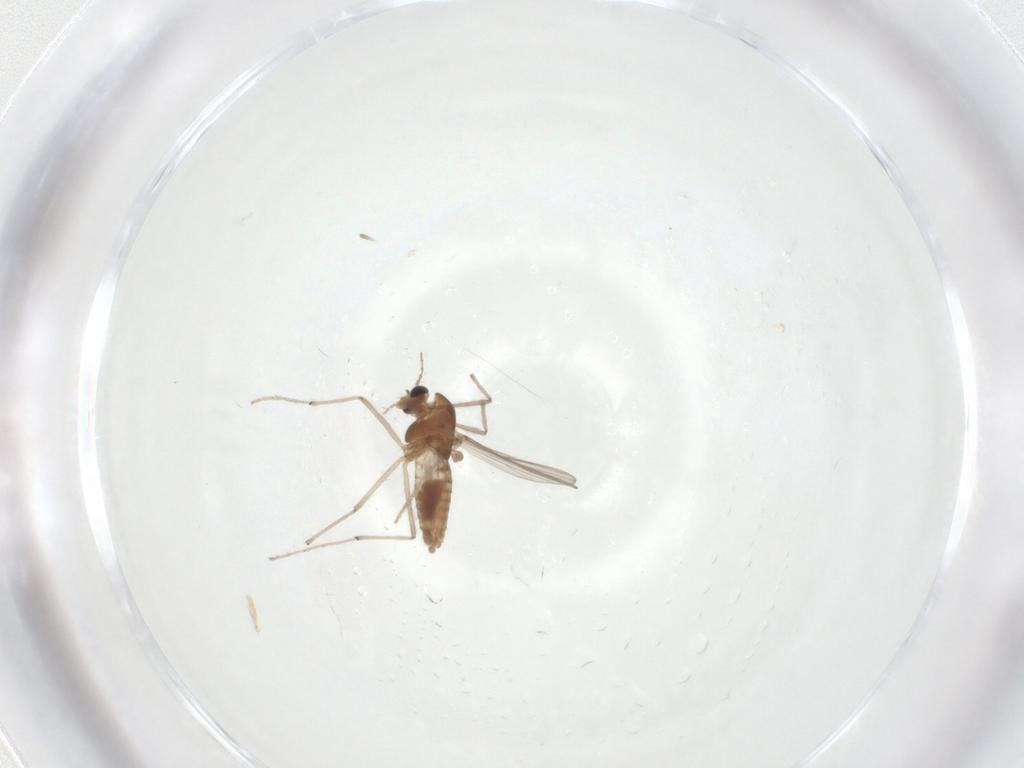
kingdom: Animalia
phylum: Arthropoda
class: Insecta
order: Diptera
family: Chironomidae
